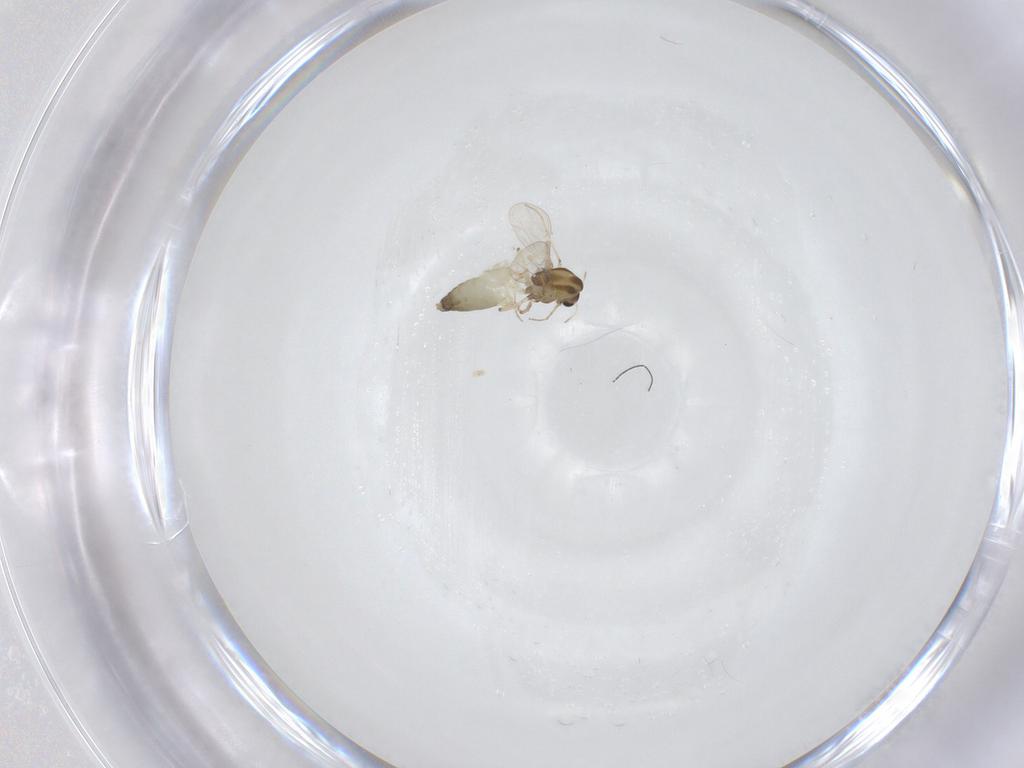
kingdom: Animalia
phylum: Arthropoda
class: Insecta
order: Diptera
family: Chironomidae
